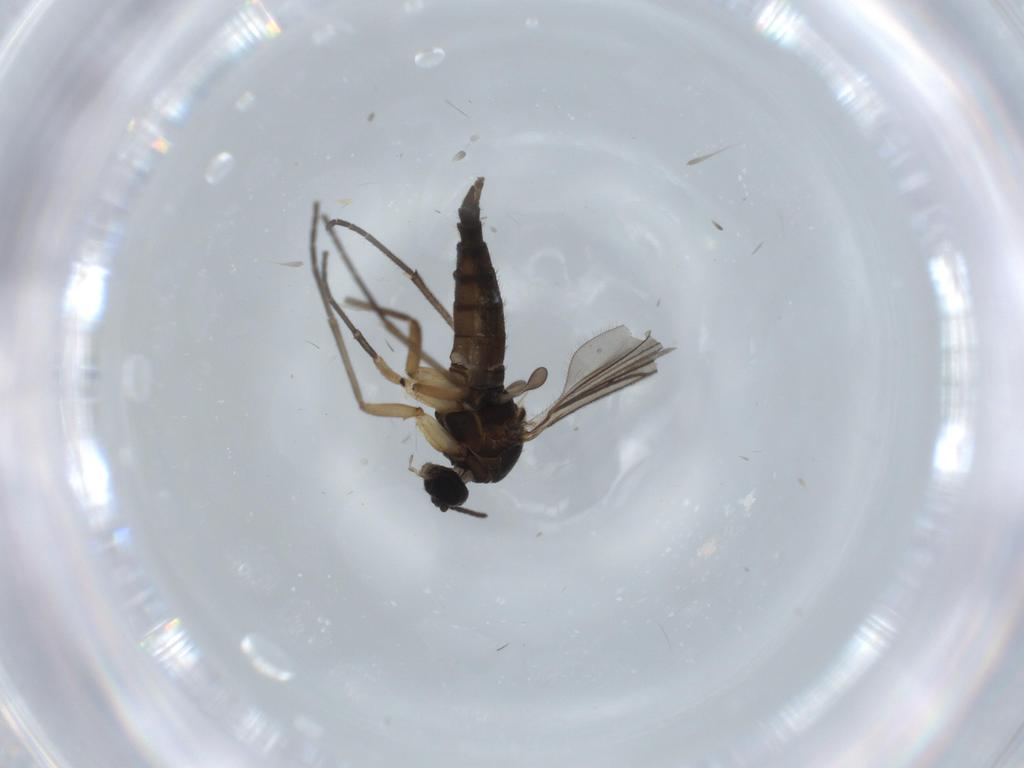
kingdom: Animalia
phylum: Arthropoda
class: Insecta
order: Diptera
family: Sciaridae
